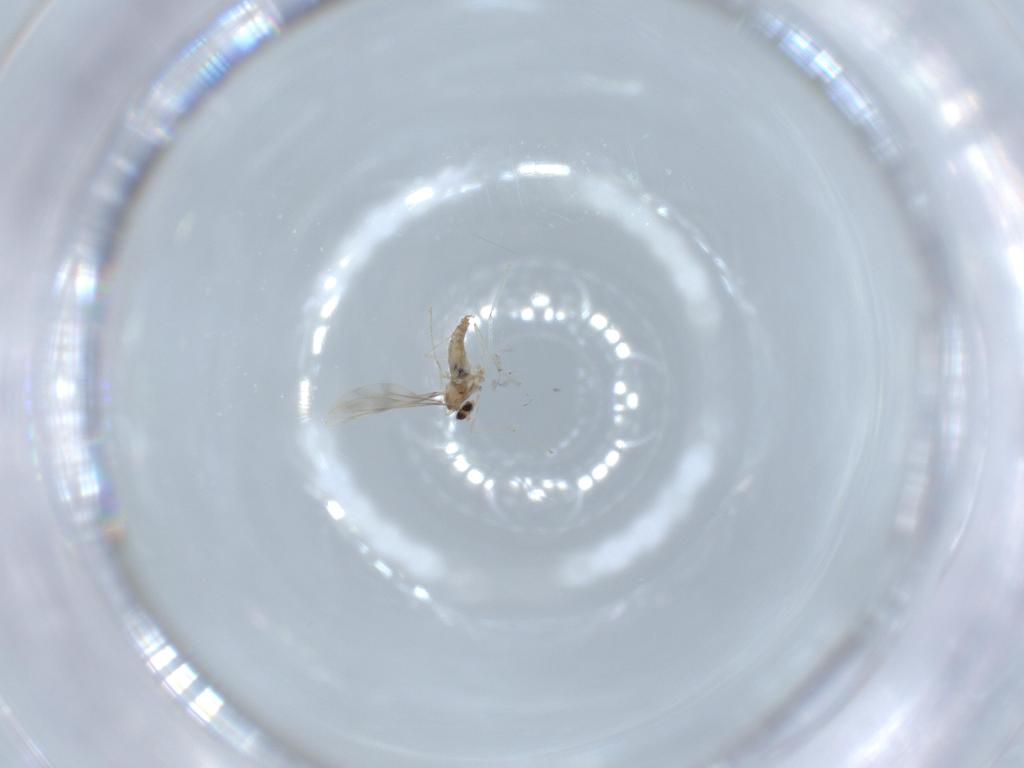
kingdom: Animalia
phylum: Arthropoda
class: Insecta
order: Diptera
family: Cecidomyiidae
